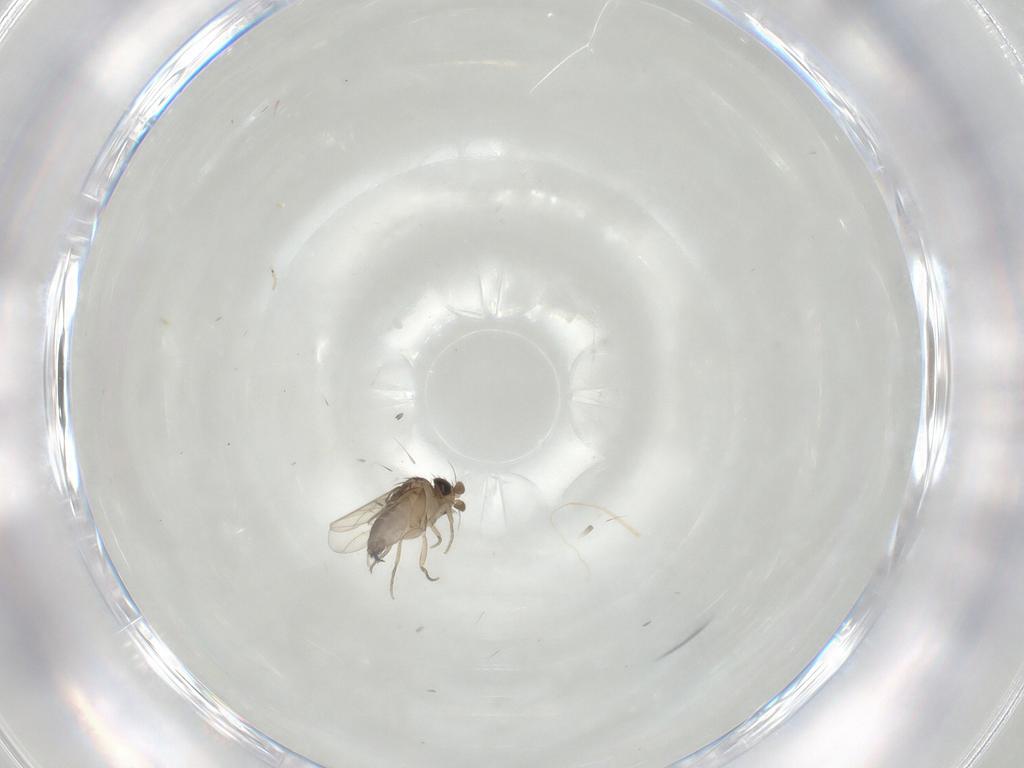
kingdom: Animalia
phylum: Arthropoda
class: Insecta
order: Diptera
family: Phoridae
